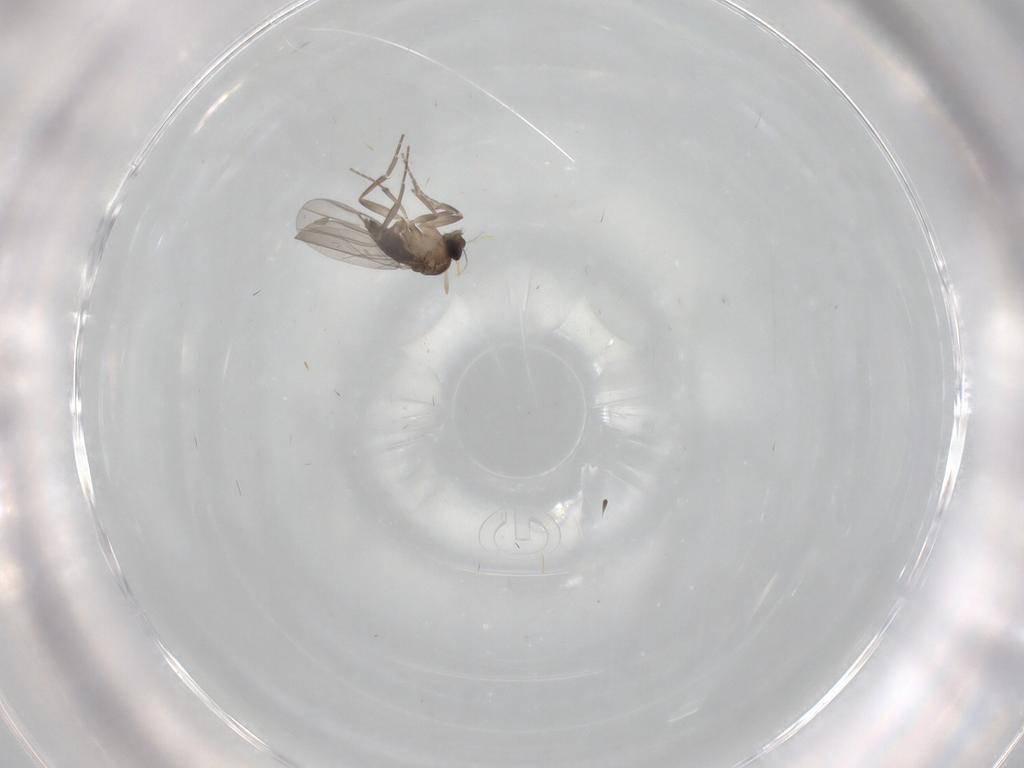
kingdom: Animalia
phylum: Arthropoda
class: Insecta
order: Diptera
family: Phoridae
